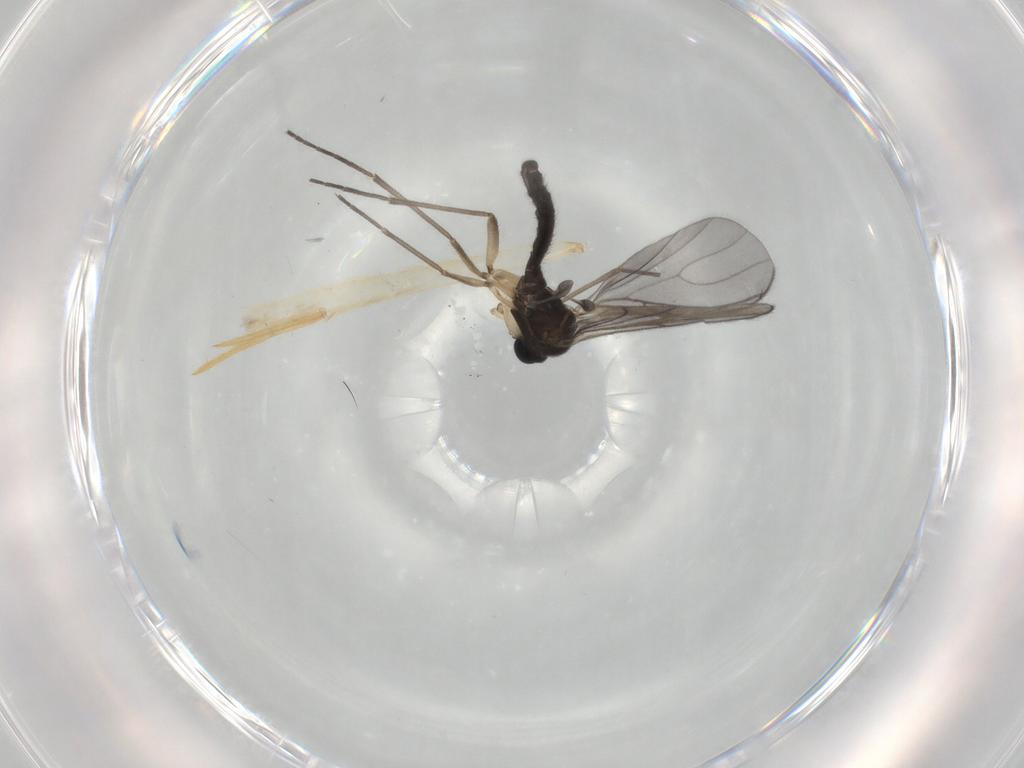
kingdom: Animalia
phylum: Arthropoda
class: Insecta
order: Diptera
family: Sciaridae
